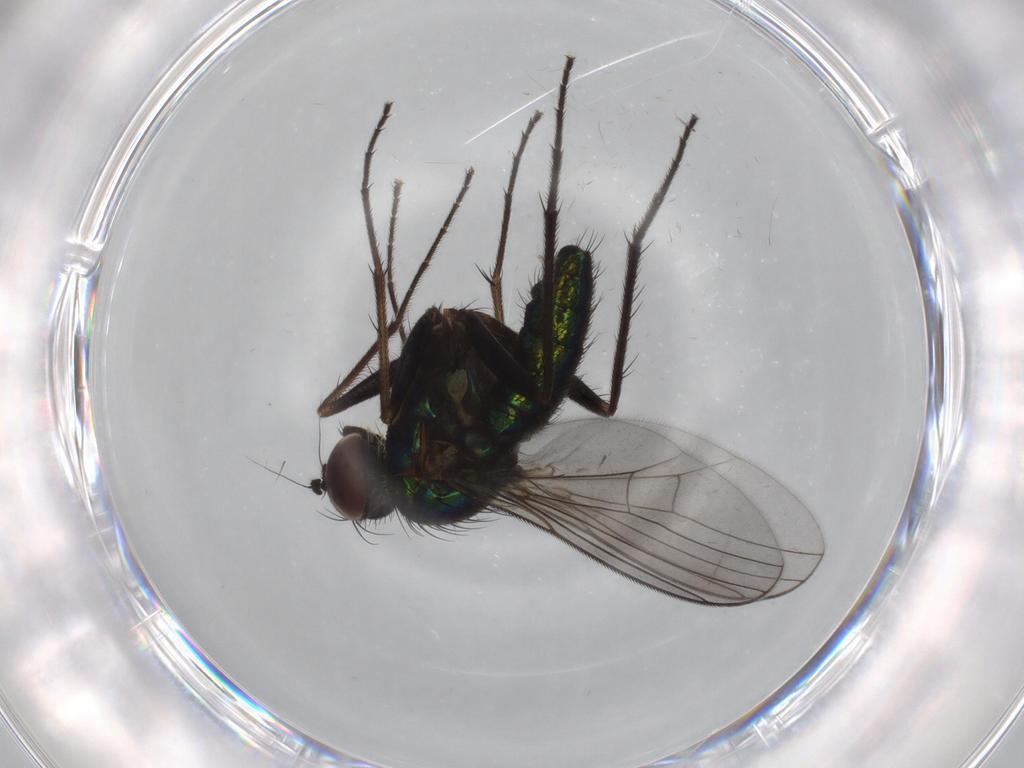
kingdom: Animalia
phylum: Arthropoda
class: Insecta
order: Diptera
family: Dolichopodidae
